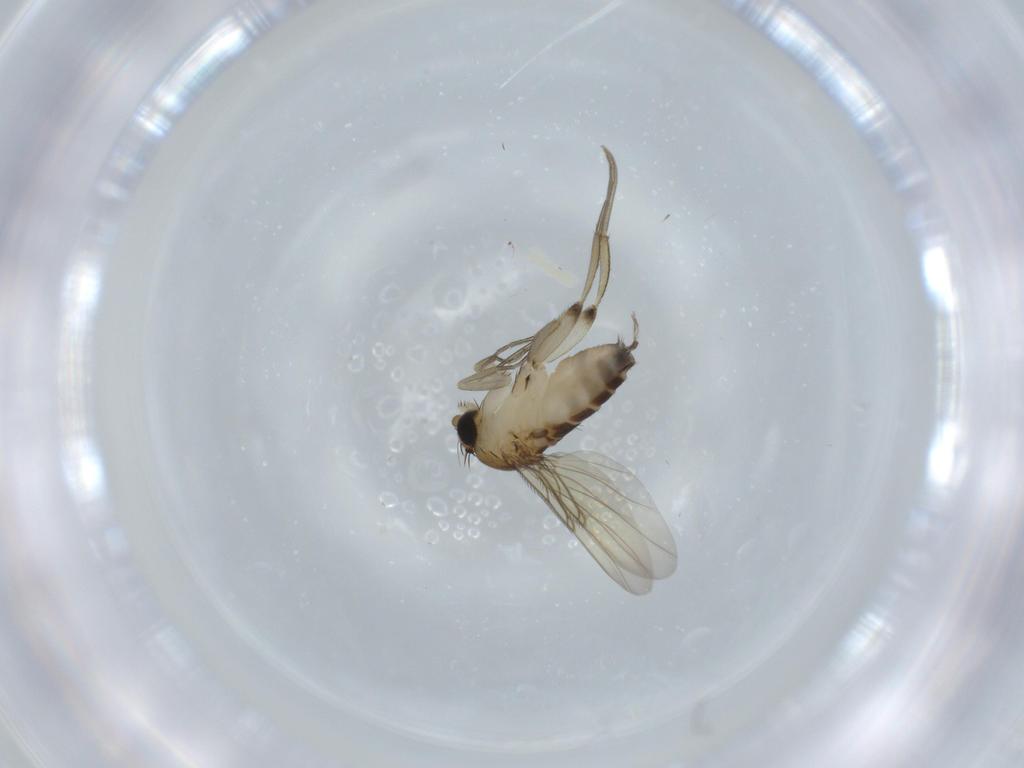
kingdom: Animalia
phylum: Arthropoda
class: Insecta
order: Diptera
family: Phoridae
